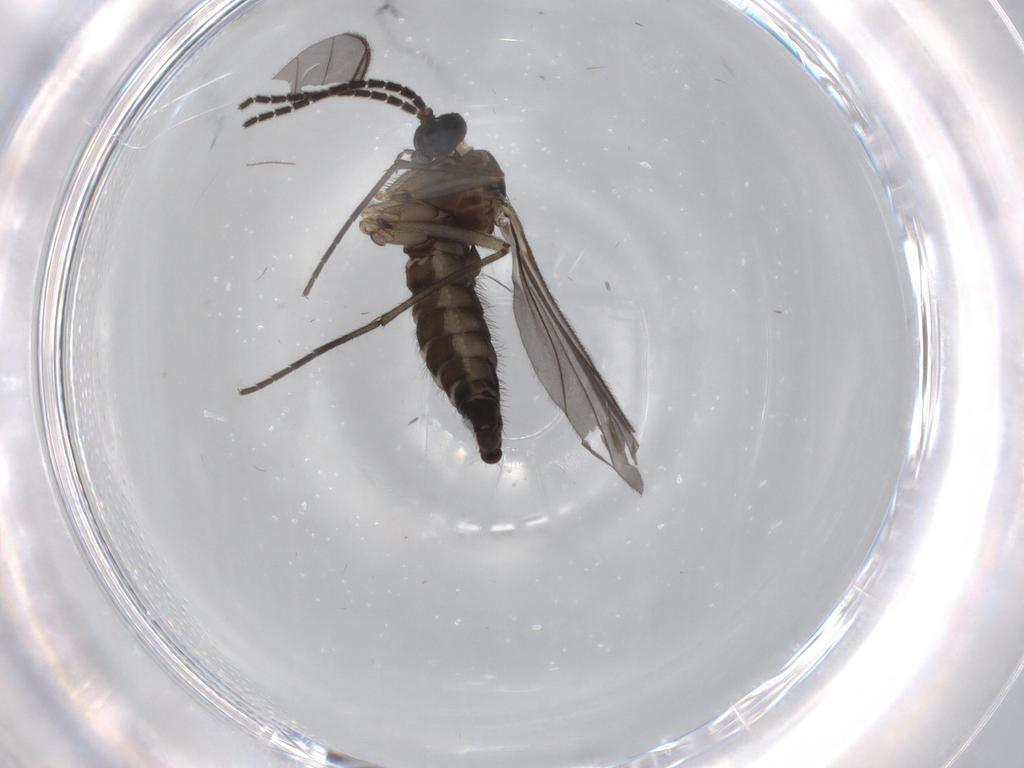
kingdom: Animalia
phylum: Arthropoda
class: Insecta
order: Diptera
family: Sciaridae
